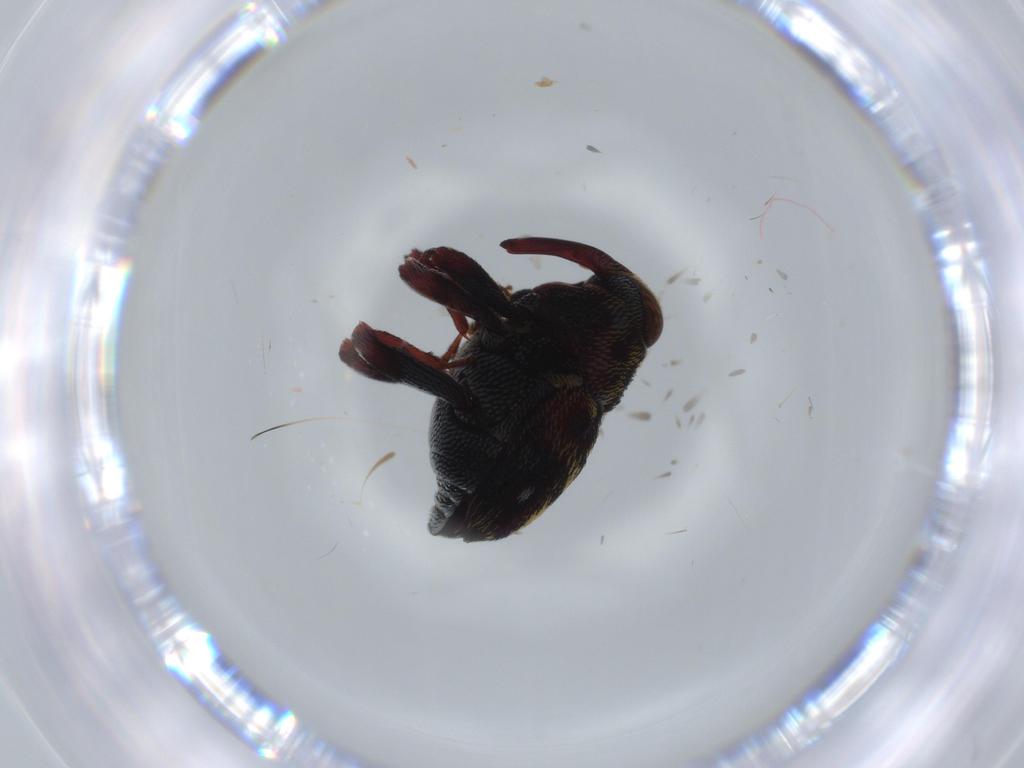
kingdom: Animalia
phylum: Arthropoda
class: Insecta
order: Coleoptera
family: Curculionidae
